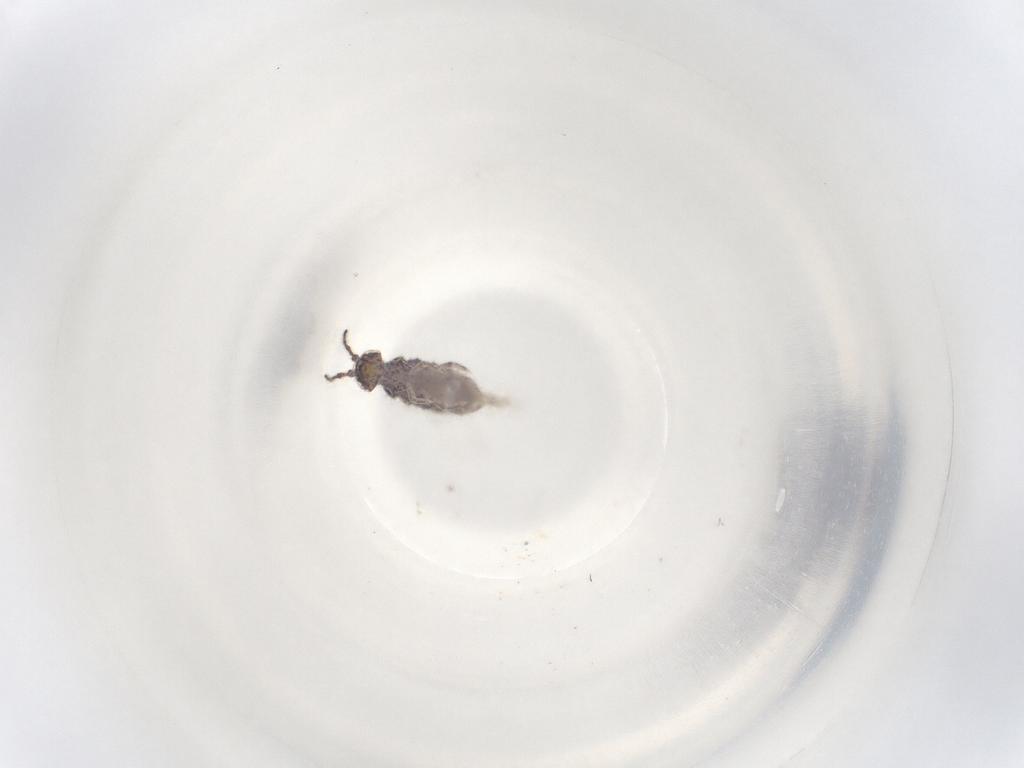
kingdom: Animalia
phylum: Arthropoda
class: Collembola
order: Entomobryomorpha
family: Isotomidae
